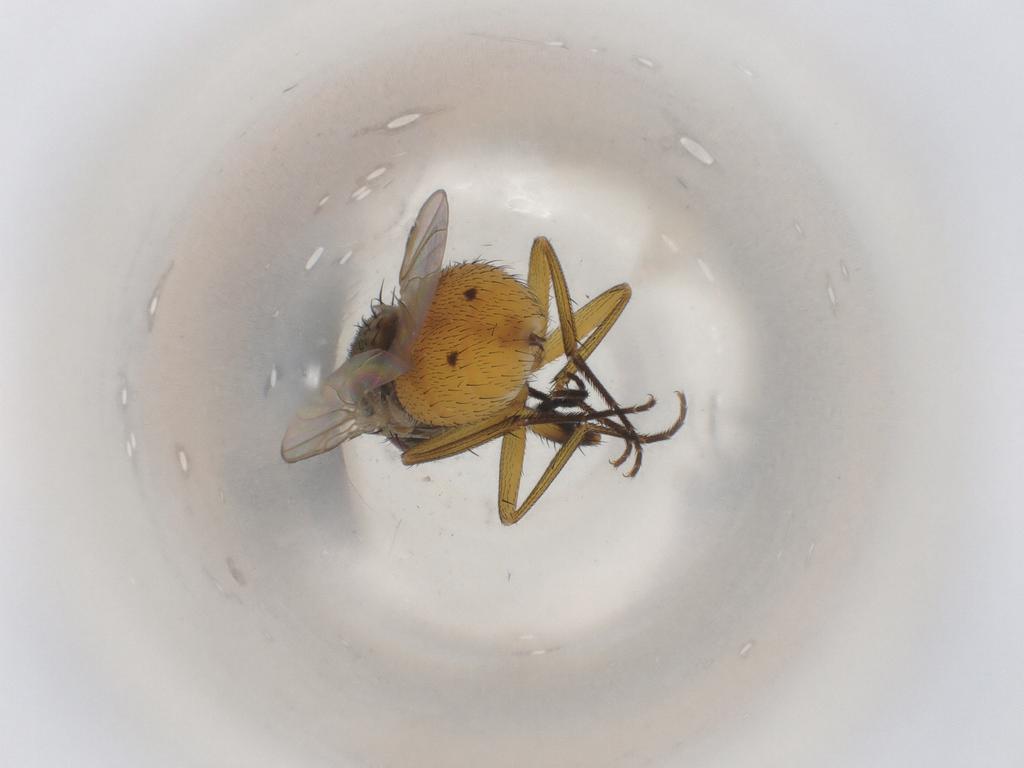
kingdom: Animalia
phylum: Arthropoda
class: Insecta
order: Diptera
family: Muscidae
